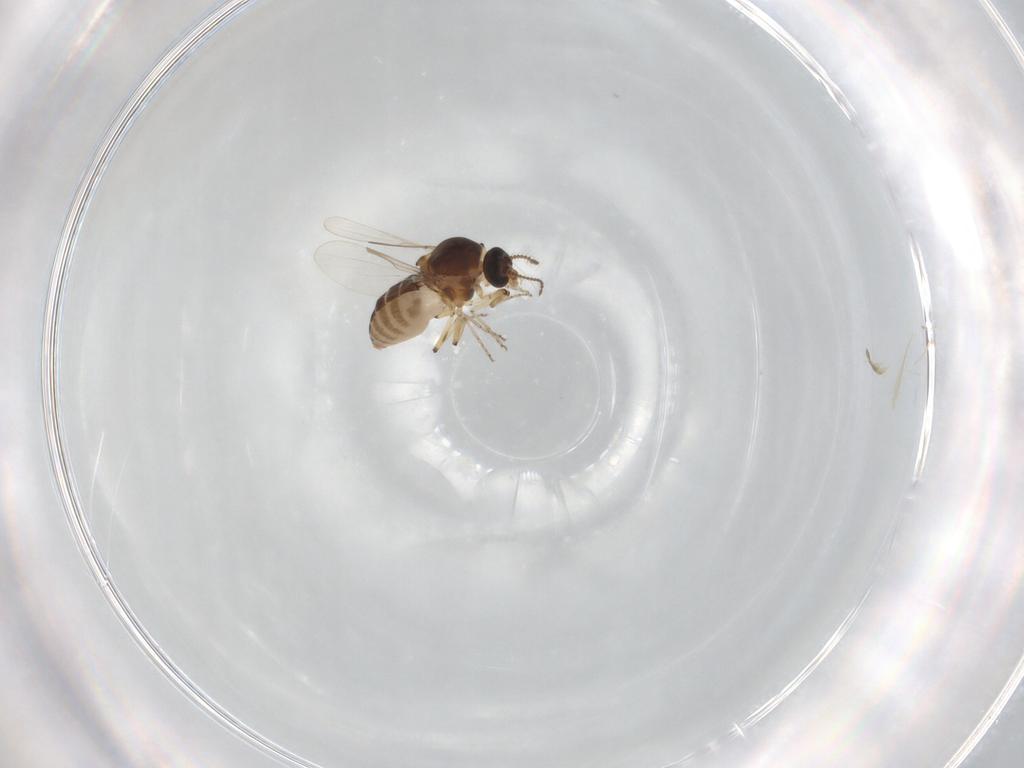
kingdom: Animalia
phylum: Arthropoda
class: Insecta
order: Diptera
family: Ceratopogonidae
